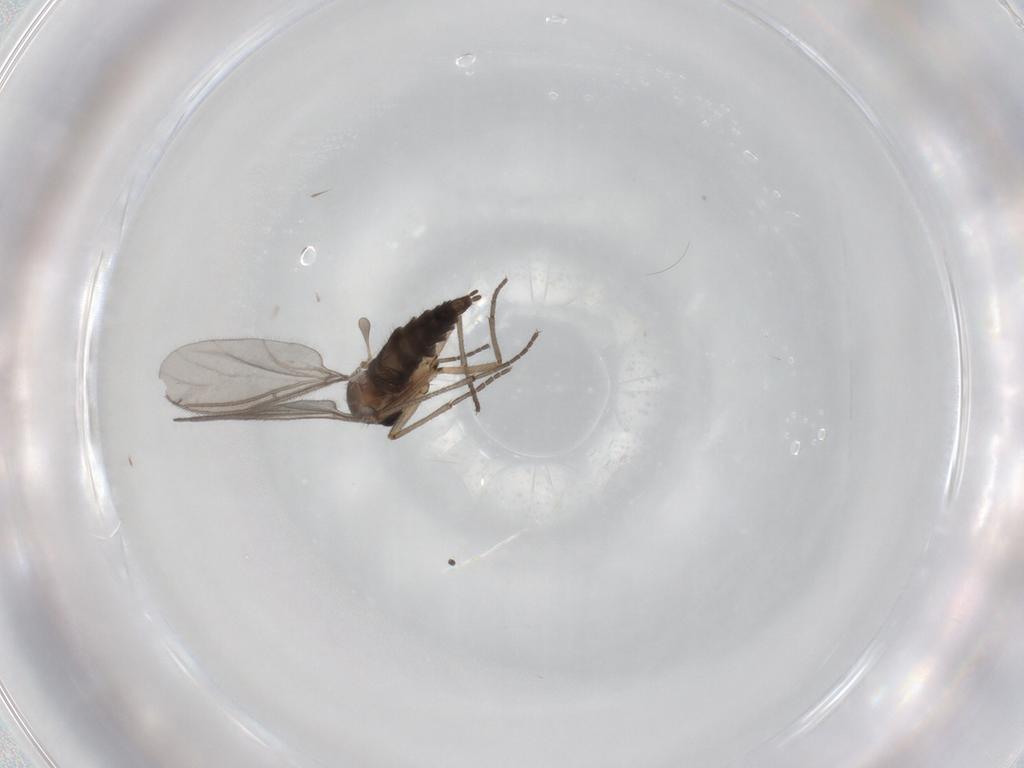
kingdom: Animalia
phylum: Arthropoda
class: Insecta
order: Diptera
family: Sciaridae
